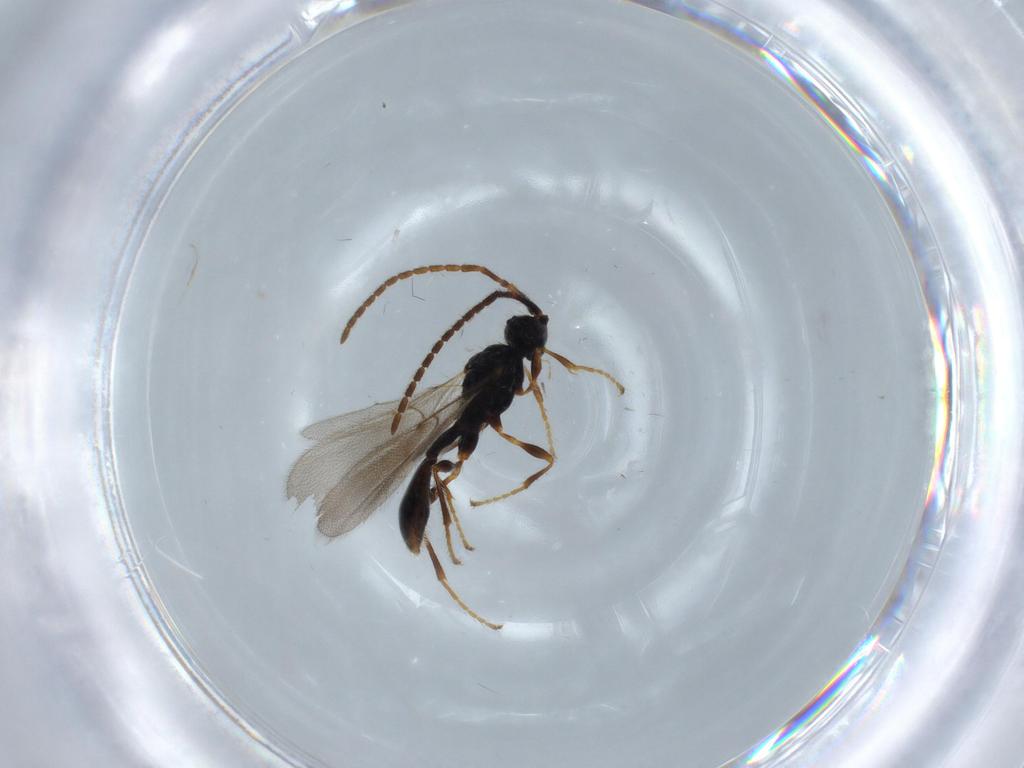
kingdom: Animalia
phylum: Arthropoda
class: Insecta
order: Hymenoptera
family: Diapriidae
